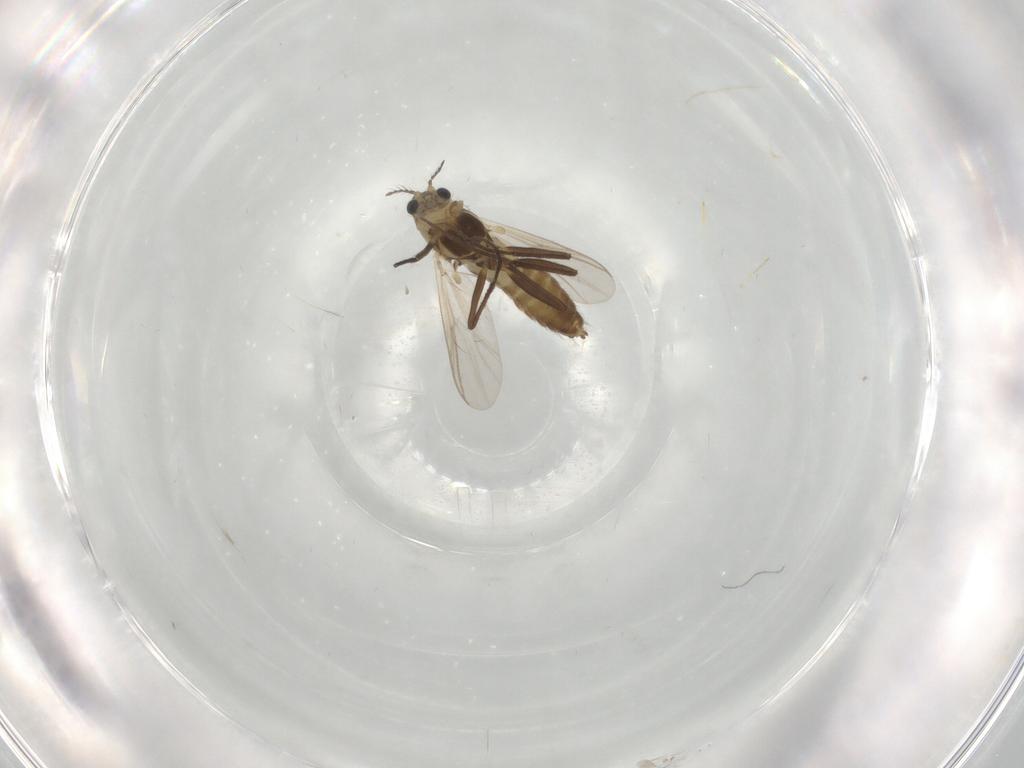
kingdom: Animalia
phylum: Arthropoda
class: Insecta
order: Diptera
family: Chironomidae
